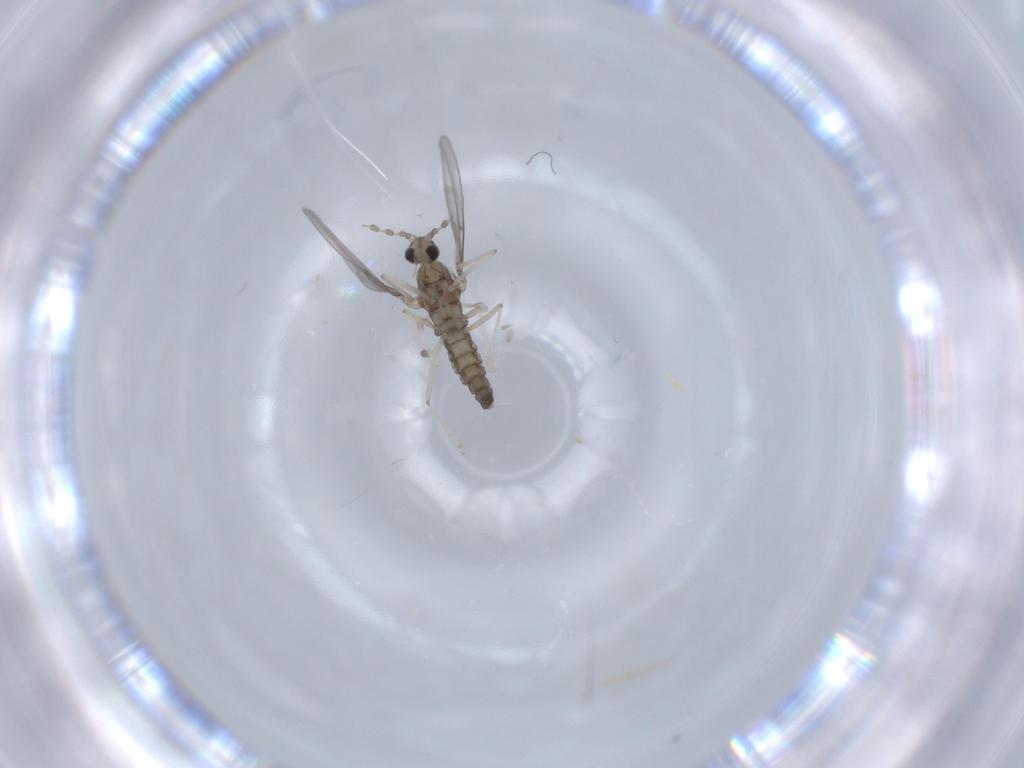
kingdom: Animalia
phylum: Arthropoda
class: Insecta
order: Diptera
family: Cecidomyiidae
